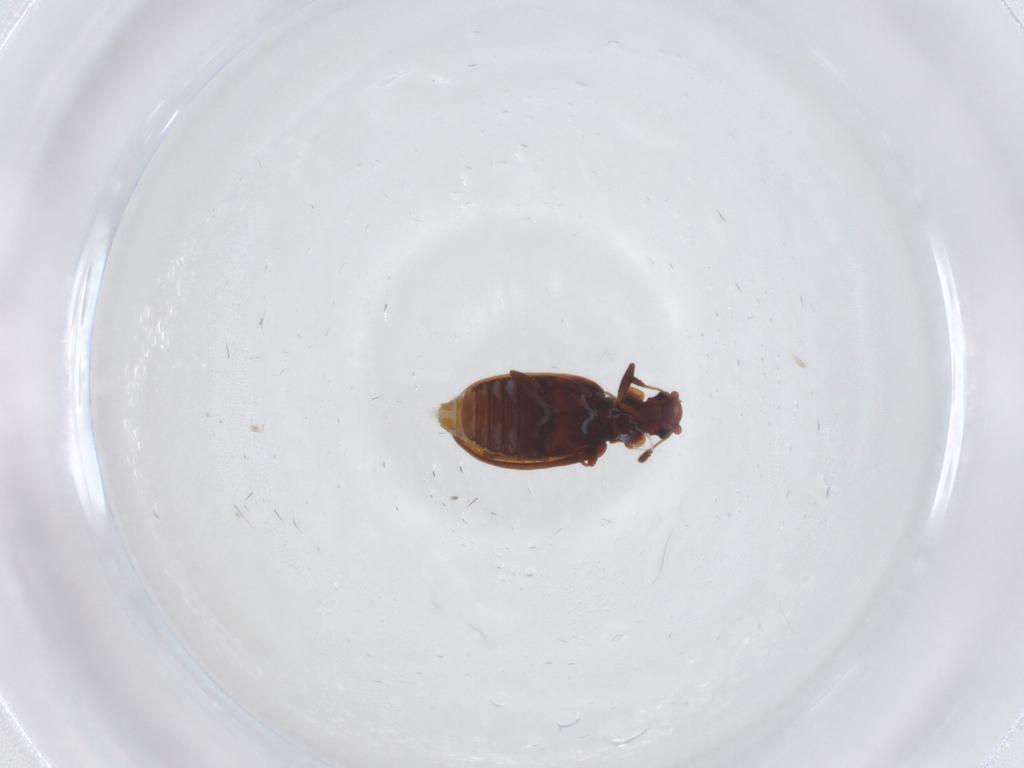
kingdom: Animalia
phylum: Arthropoda
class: Insecta
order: Coleoptera
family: Latridiidae
